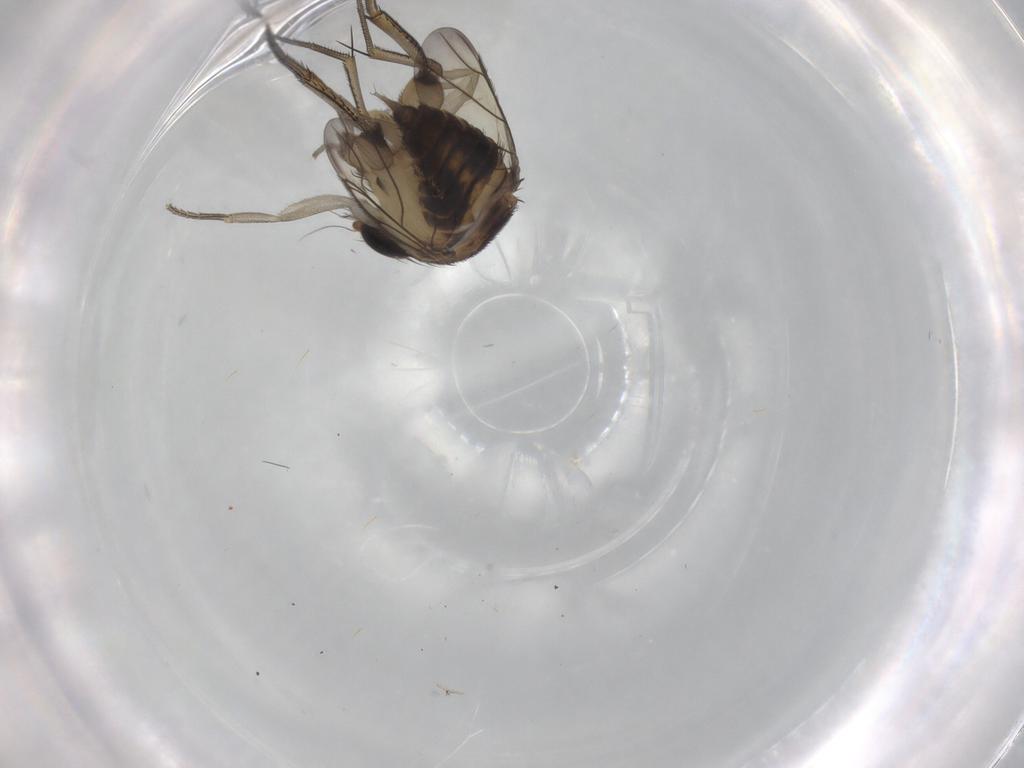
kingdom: Animalia
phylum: Arthropoda
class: Insecta
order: Diptera
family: Phoridae
